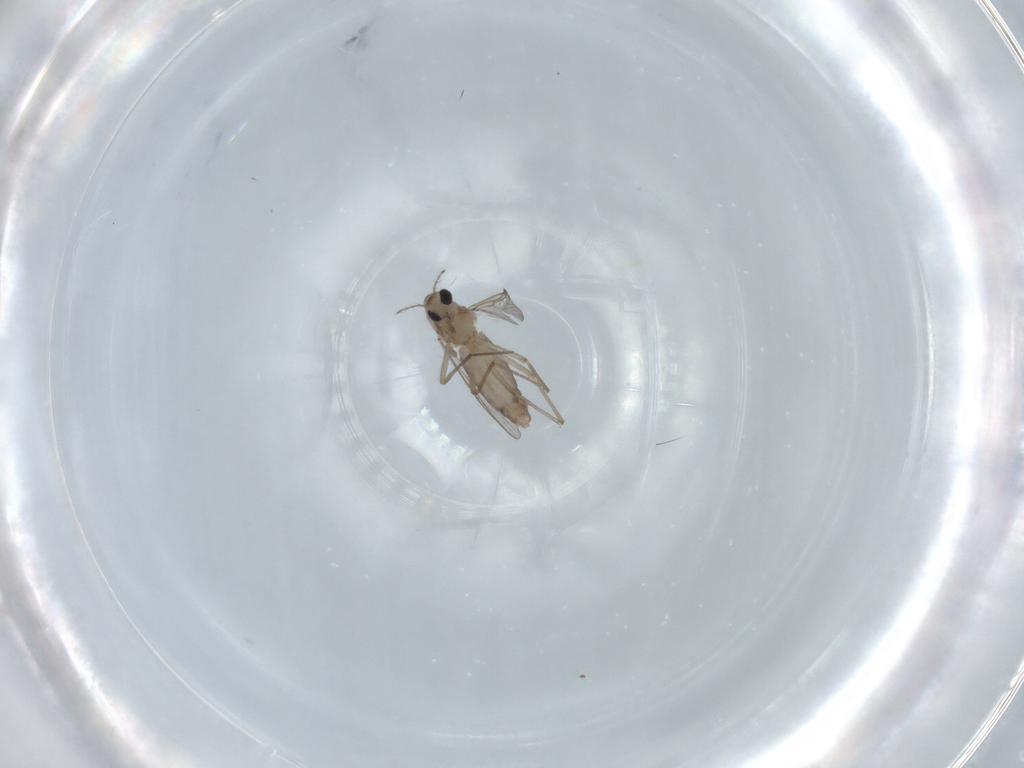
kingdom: Animalia
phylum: Arthropoda
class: Insecta
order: Diptera
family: Chironomidae
